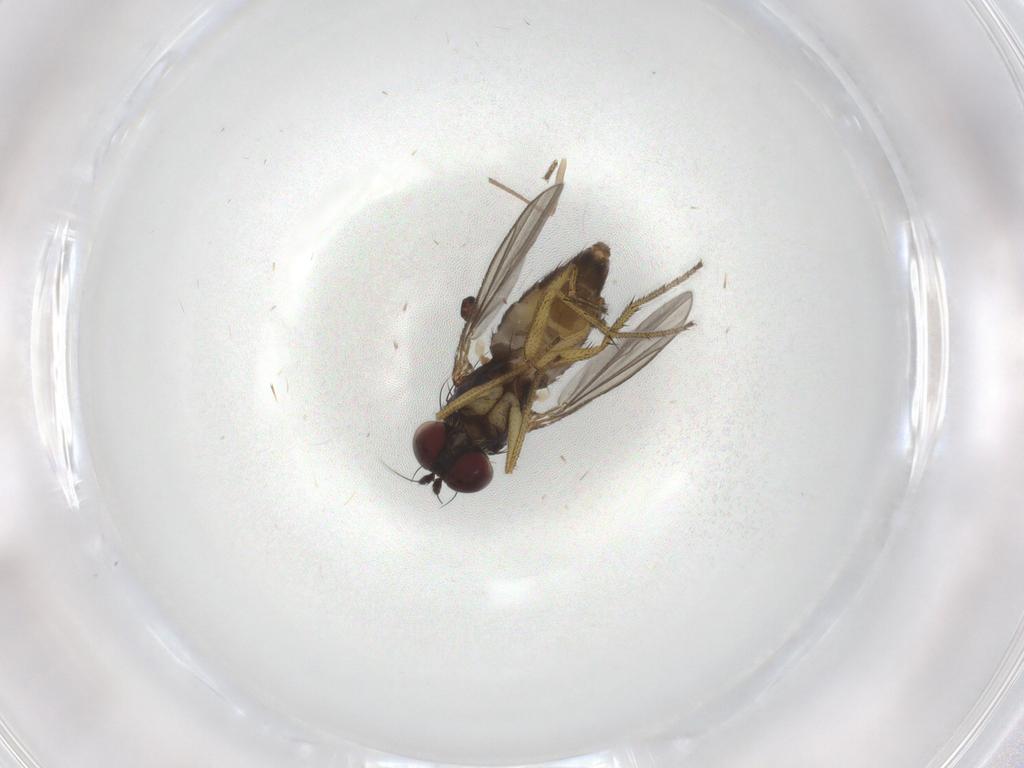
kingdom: Animalia
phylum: Arthropoda
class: Insecta
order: Diptera
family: Dolichopodidae
